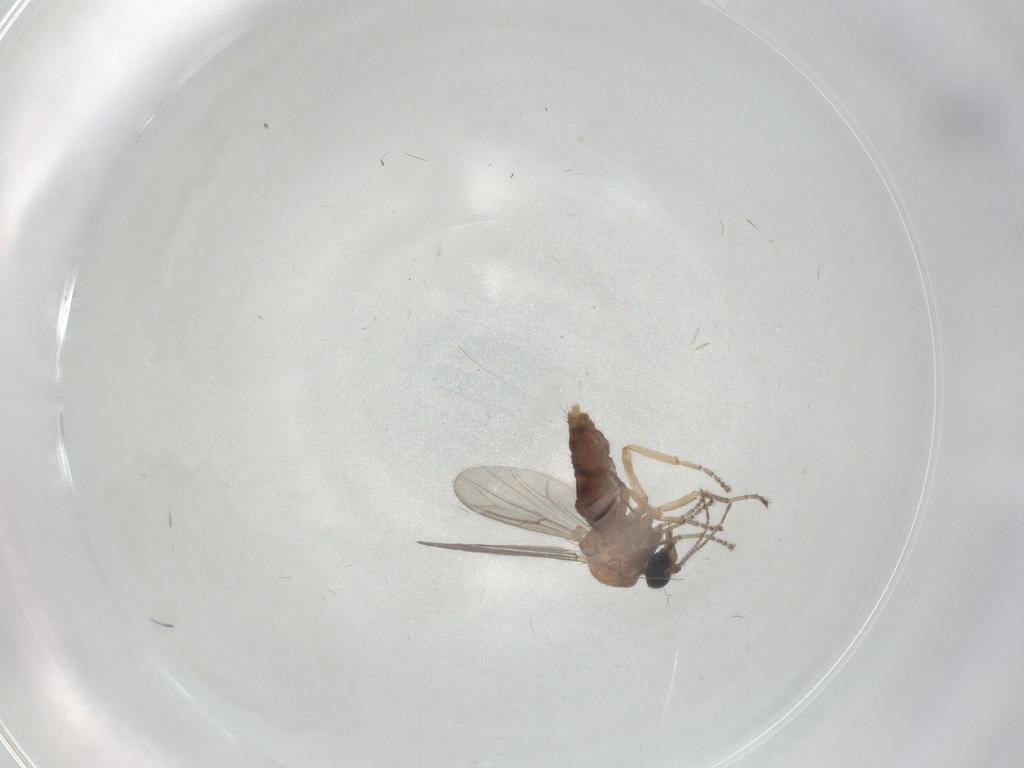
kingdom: Animalia
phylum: Arthropoda
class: Insecta
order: Diptera
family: Ceratopogonidae
